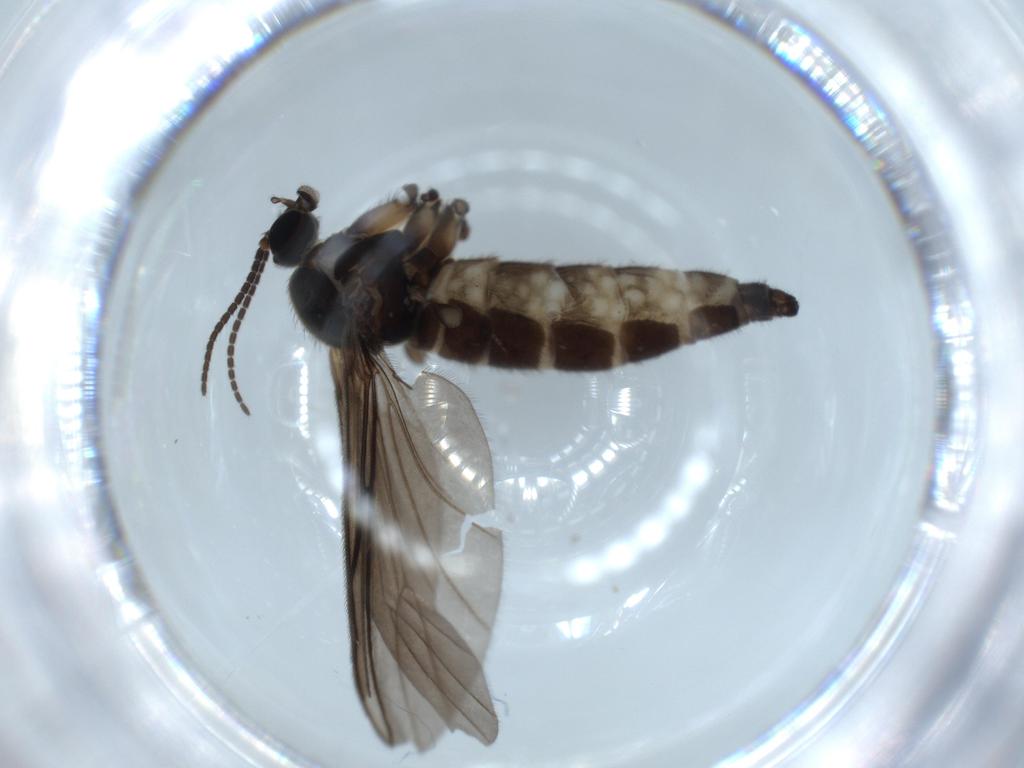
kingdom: Animalia
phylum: Arthropoda
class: Insecta
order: Diptera
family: Sciaridae
